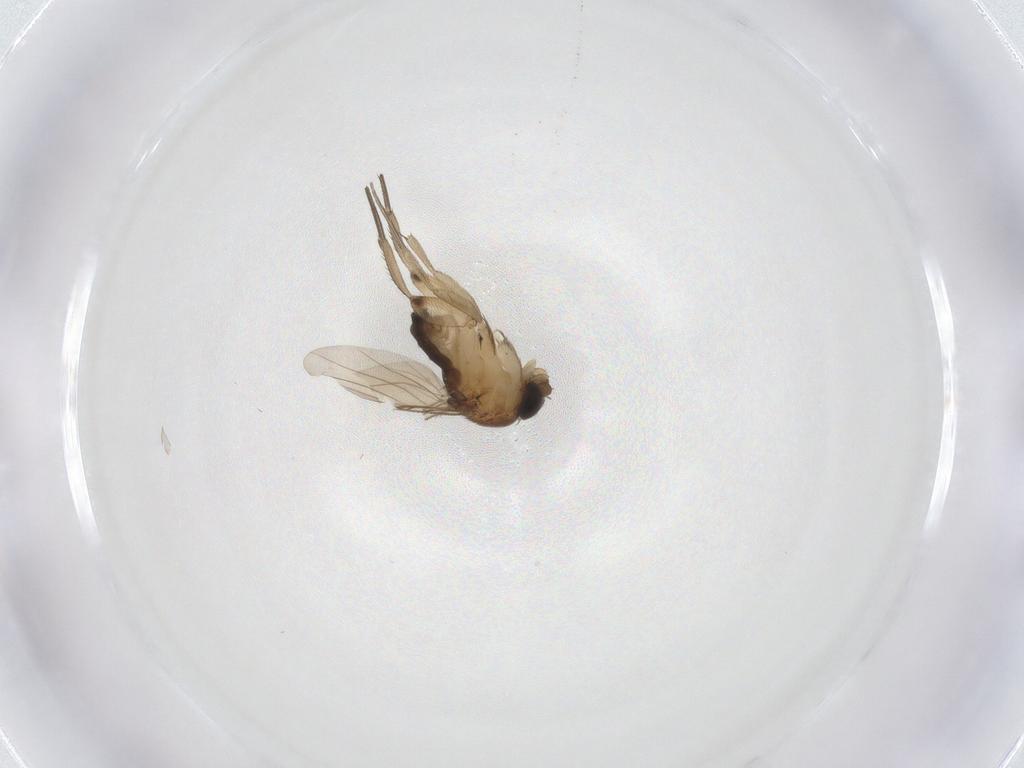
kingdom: Animalia
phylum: Arthropoda
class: Insecta
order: Diptera
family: Phoridae
